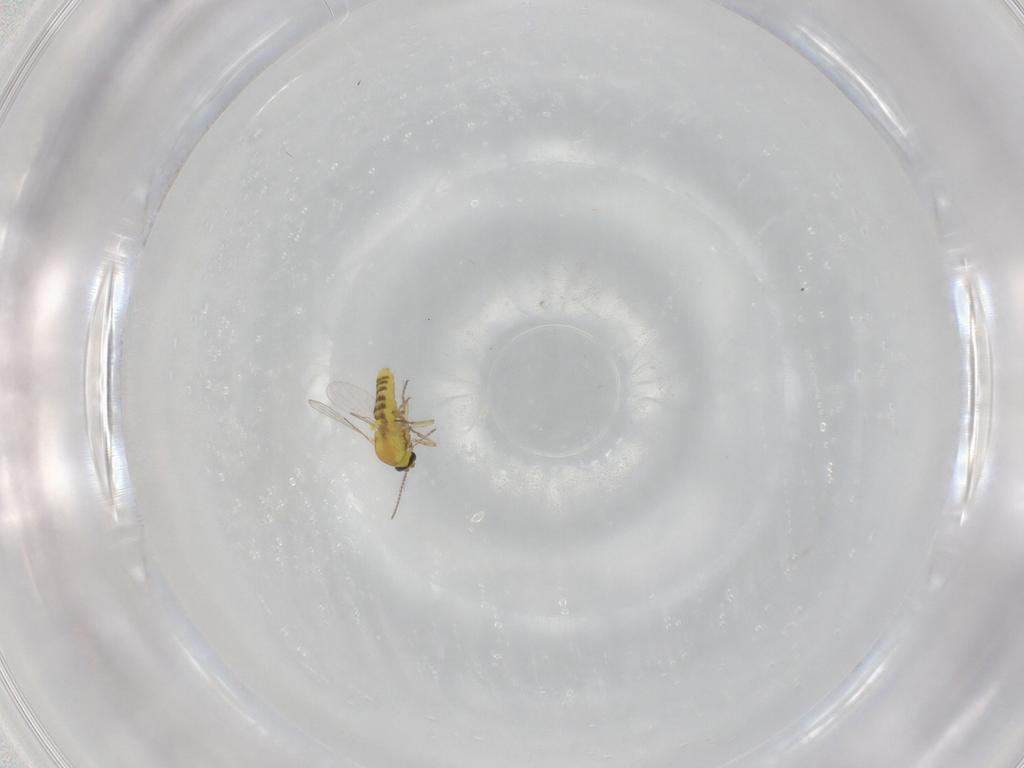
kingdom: Animalia
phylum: Arthropoda
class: Insecta
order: Diptera
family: Ceratopogonidae
